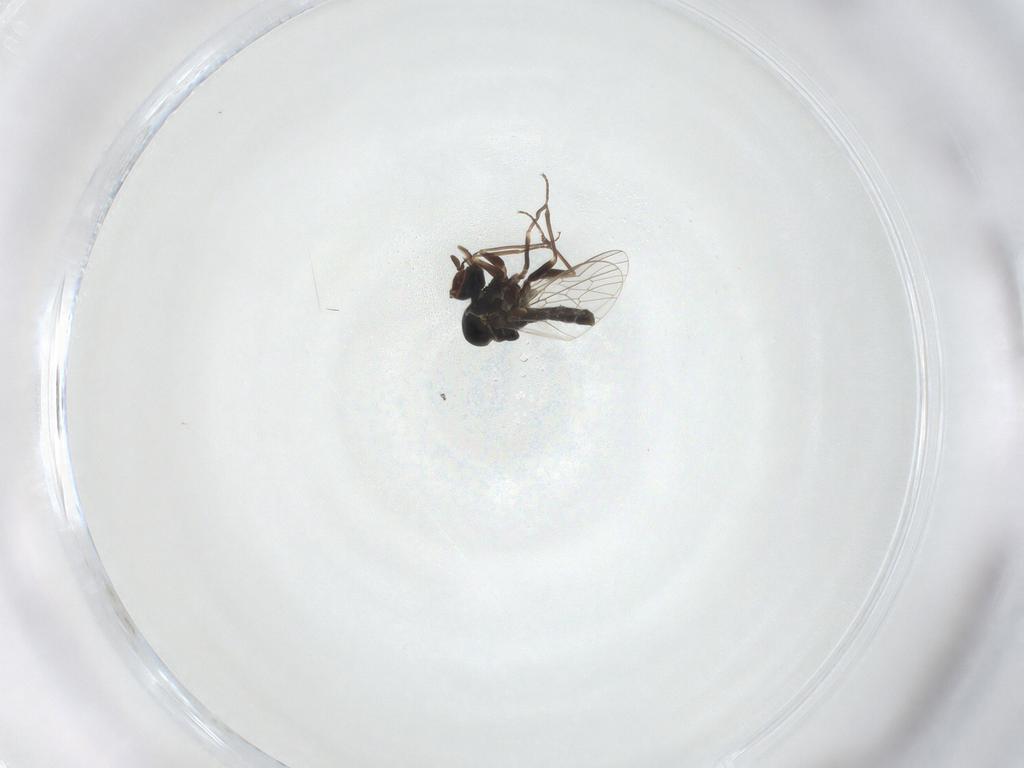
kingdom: Animalia
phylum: Arthropoda
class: Insecta
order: Diptera
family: Mythicomyiidae
